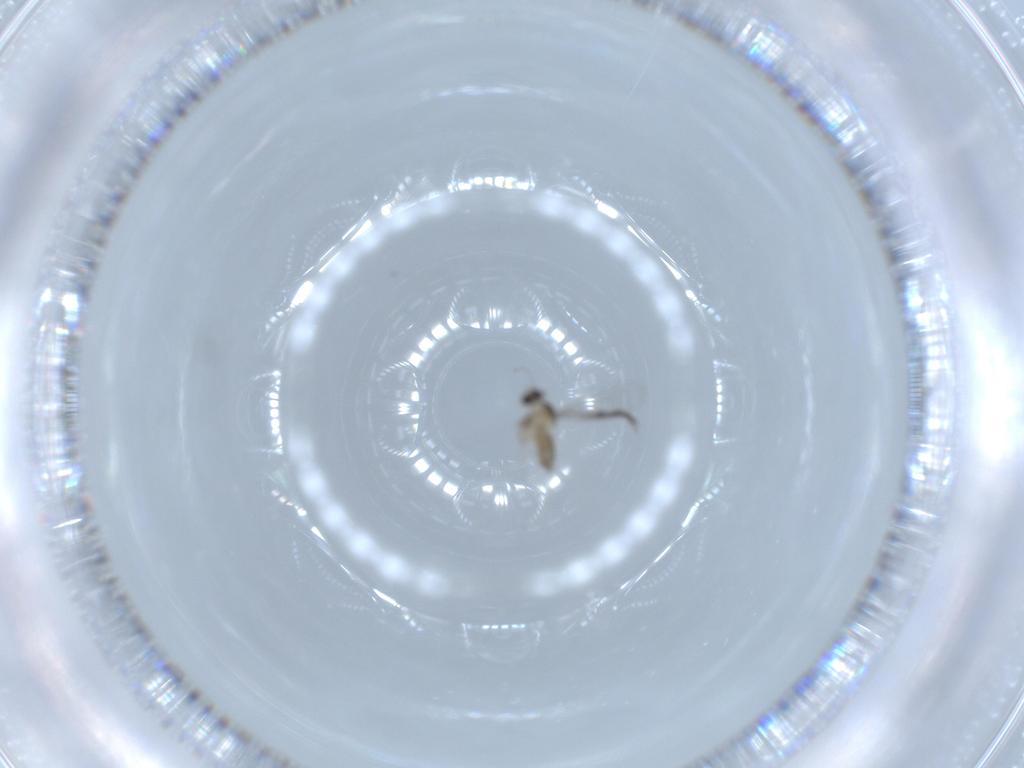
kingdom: Animalia
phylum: Arthropoda
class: Insecta
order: Diptera
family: Cecidomyiidae
